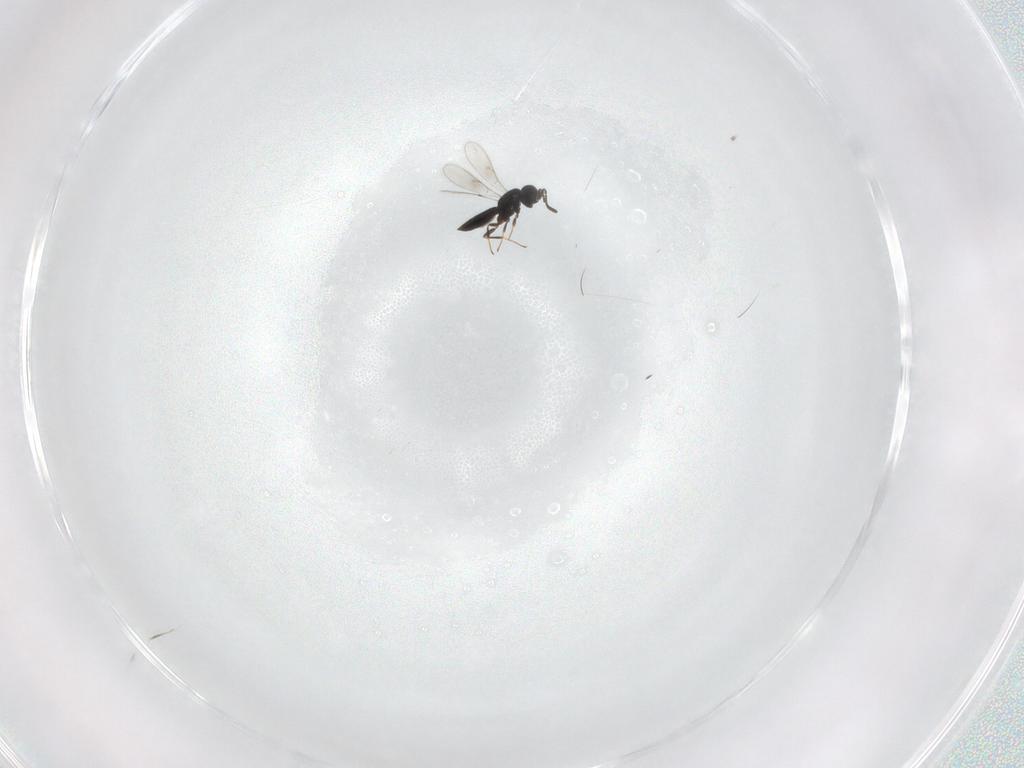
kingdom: Animalia
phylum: Arthropoda
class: Insecta
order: Hymenoptera
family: Scelionidae
